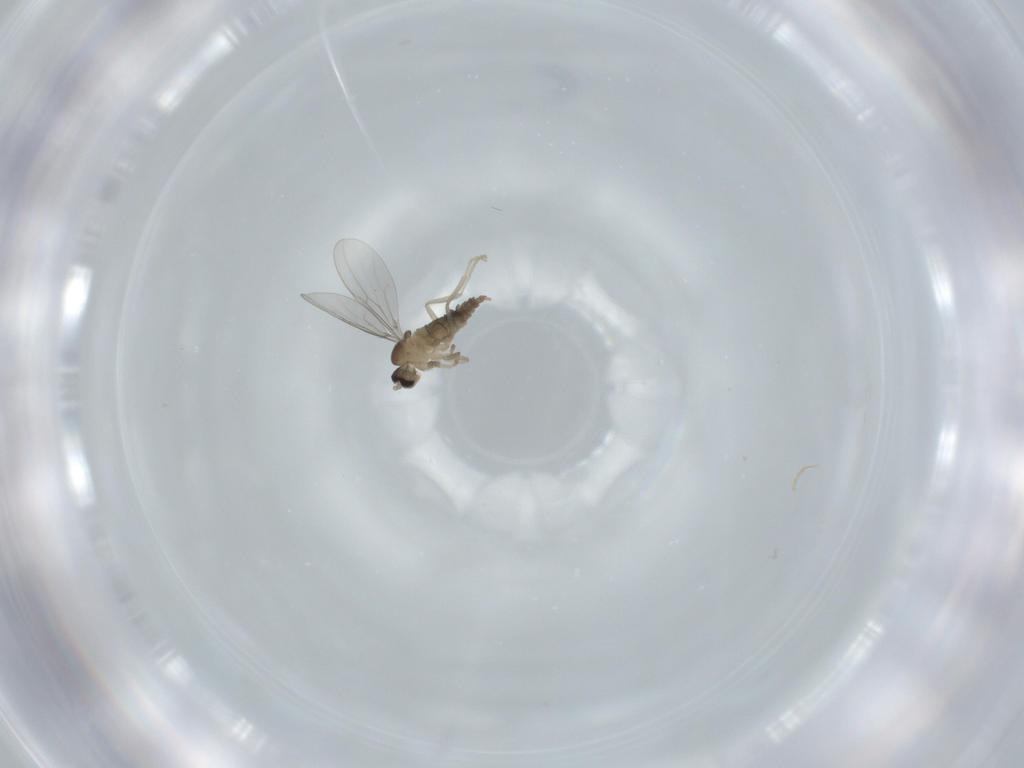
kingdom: Animalia
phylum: Arthropoda
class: Insecta
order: Diptera
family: Cecidomyiidae
